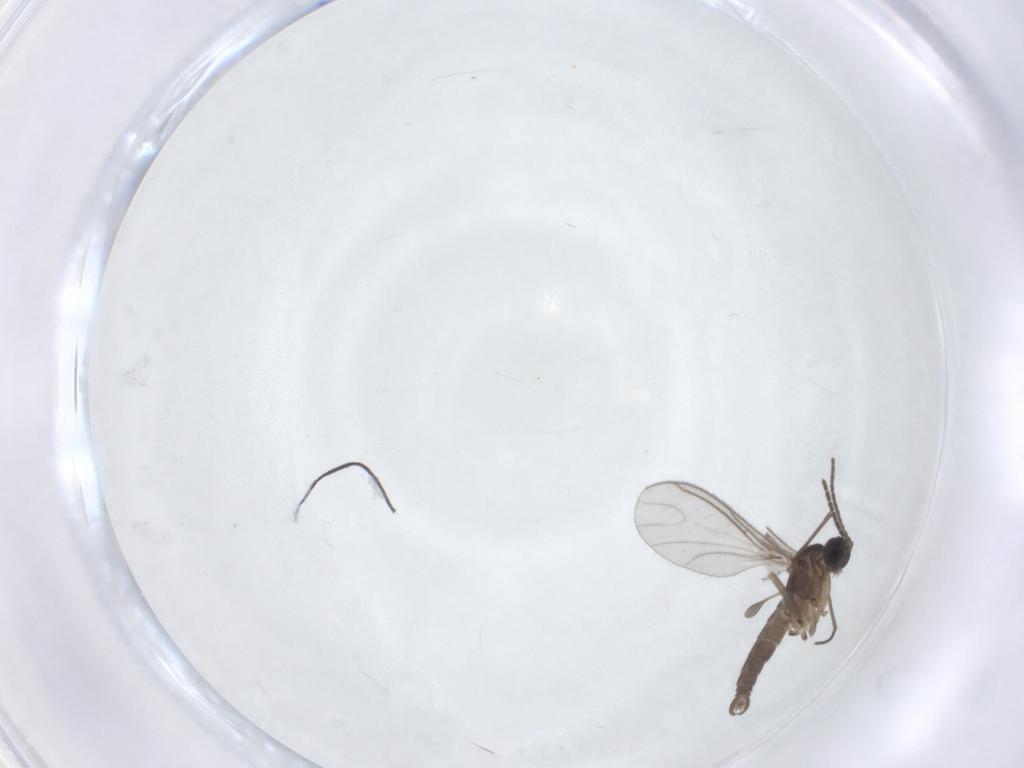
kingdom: Animalia
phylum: Arthropoda
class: Insecta
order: Diptera
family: Sciaridae
